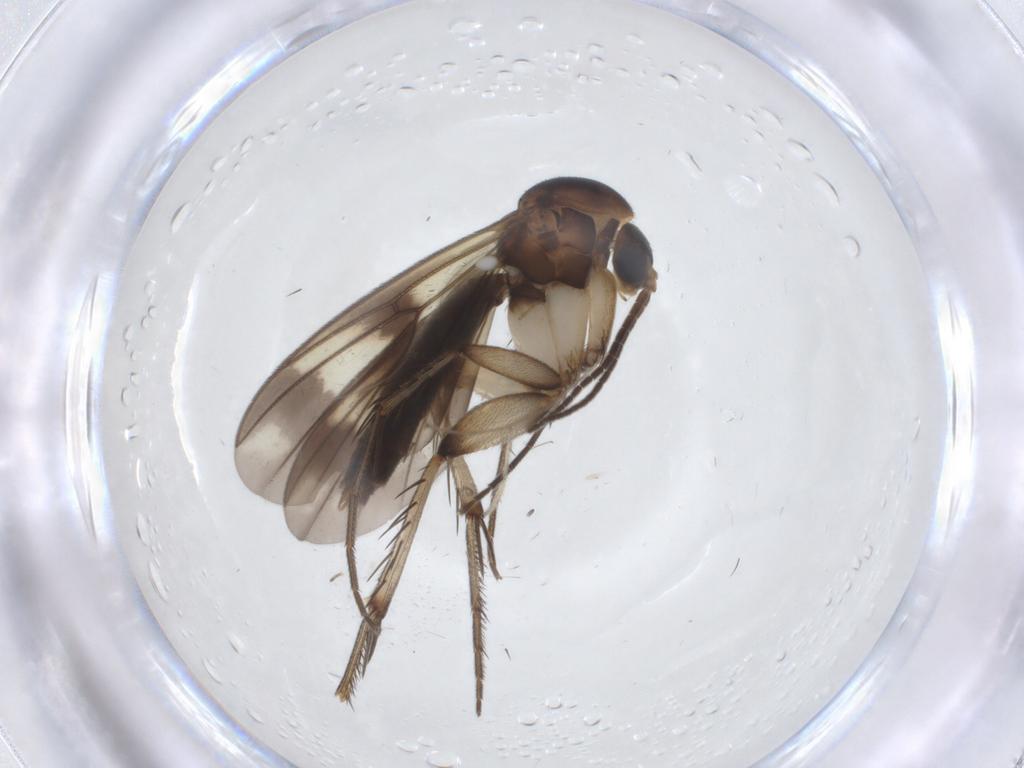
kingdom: Animalia
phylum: Arthropoda
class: Insecta
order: Diptera
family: Chironomidae
